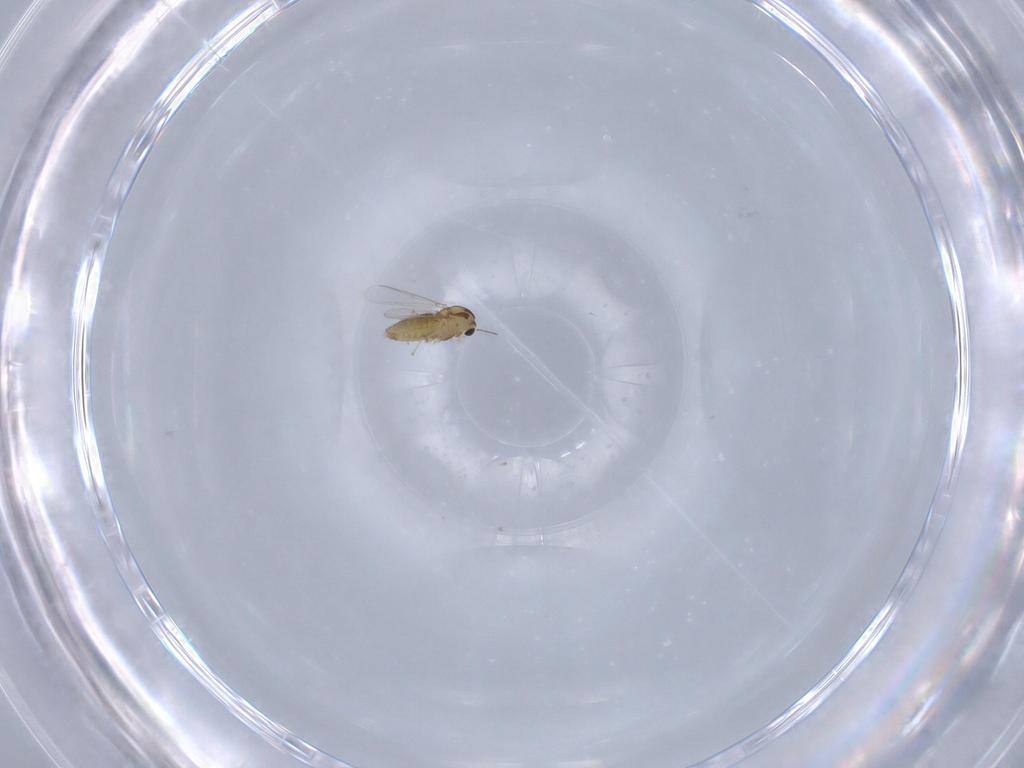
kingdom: Animalia
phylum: Arthropoda
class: Insecta
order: Diptera
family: Chironomidae
